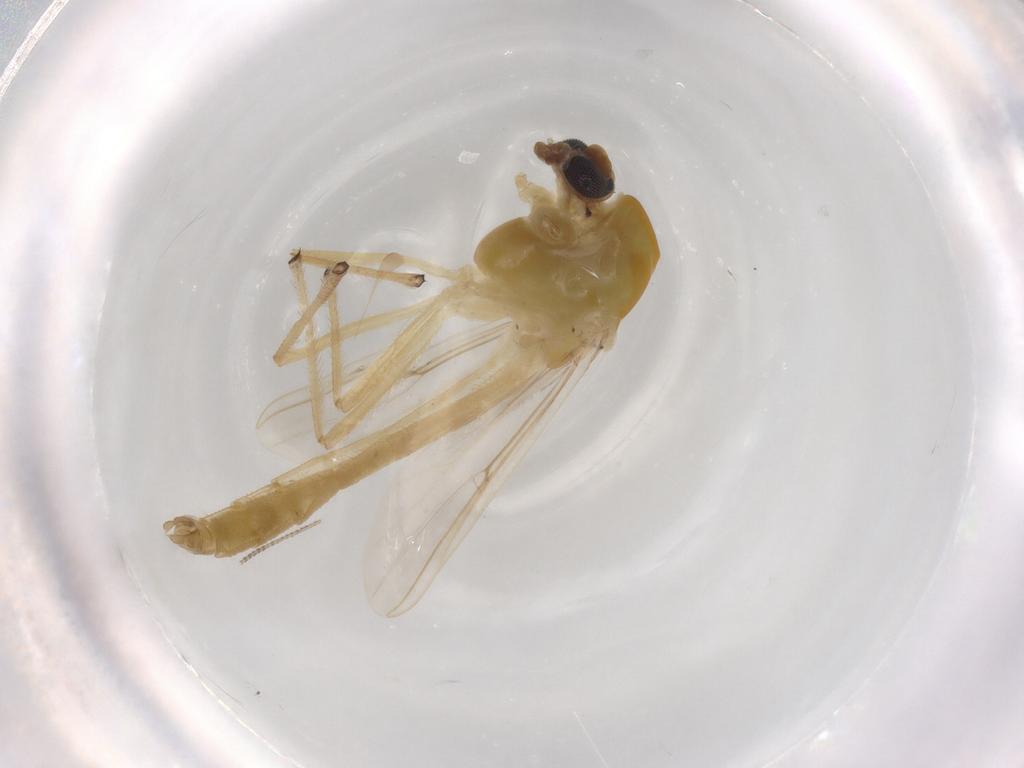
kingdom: Animalia
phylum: Arthropoda
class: Insecta
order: Diptera
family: Chironomidae
